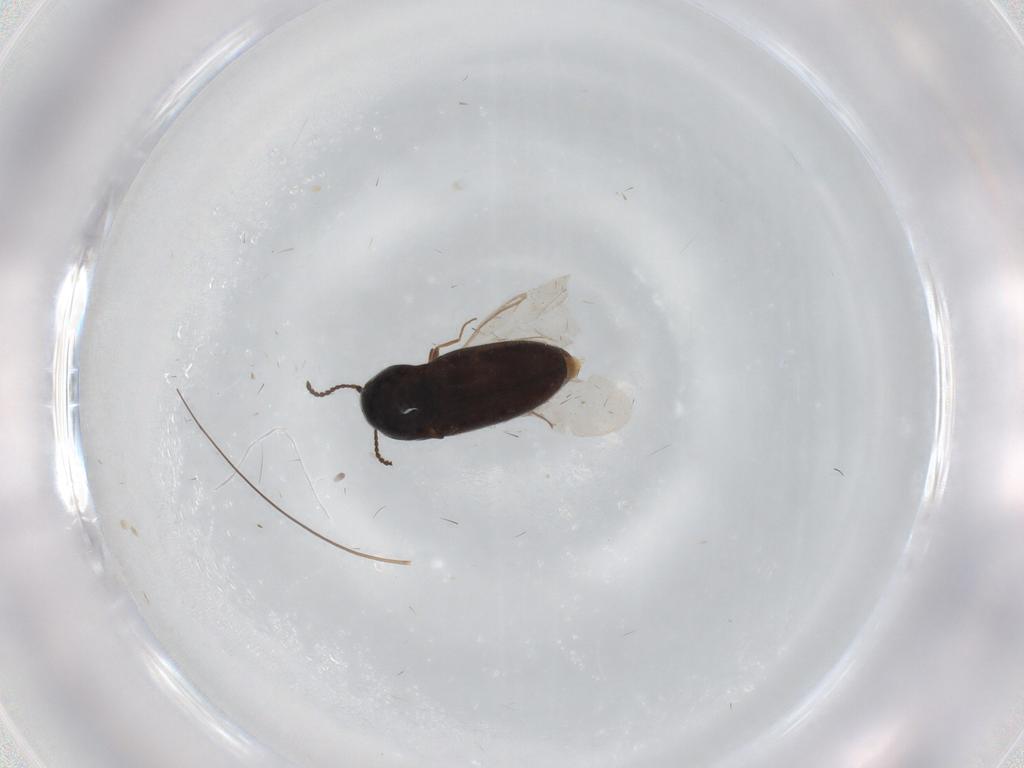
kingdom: Animalia
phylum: Arthropoda
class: Insecta
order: Coleoptera
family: Elateridae
